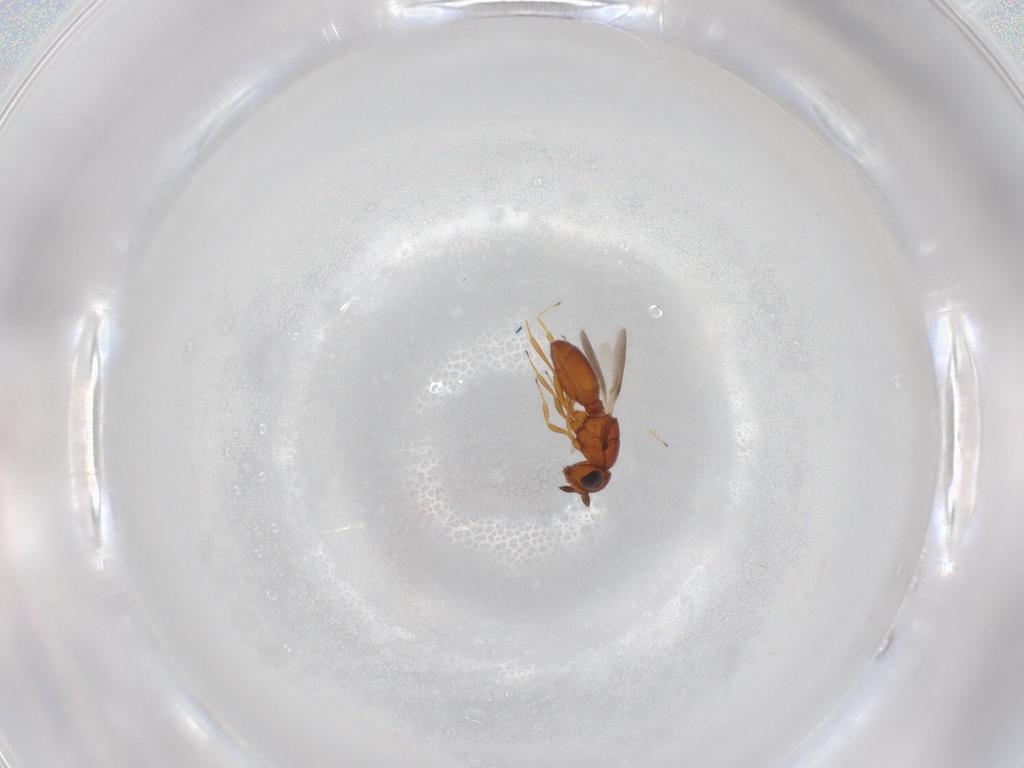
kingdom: Animalia
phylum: Arthropoda
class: Insecta
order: Hymenoptera
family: Scelionidae
